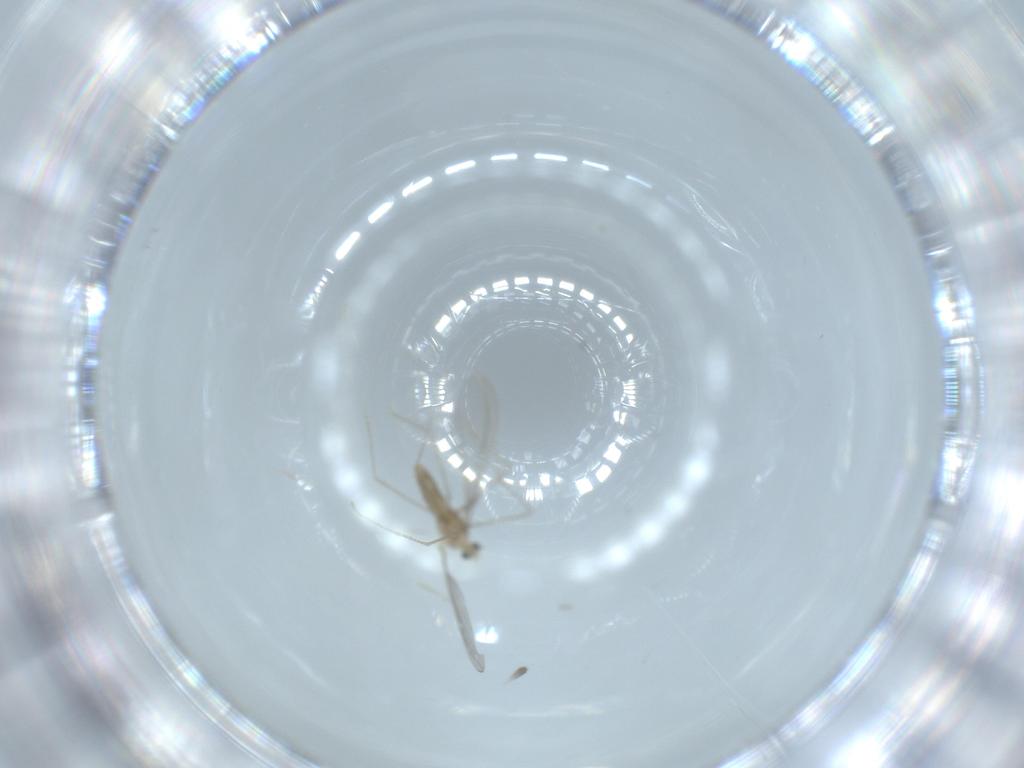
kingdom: Animalia
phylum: Arthropoda
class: Insecta
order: Diptera
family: Cecidomyiidae
